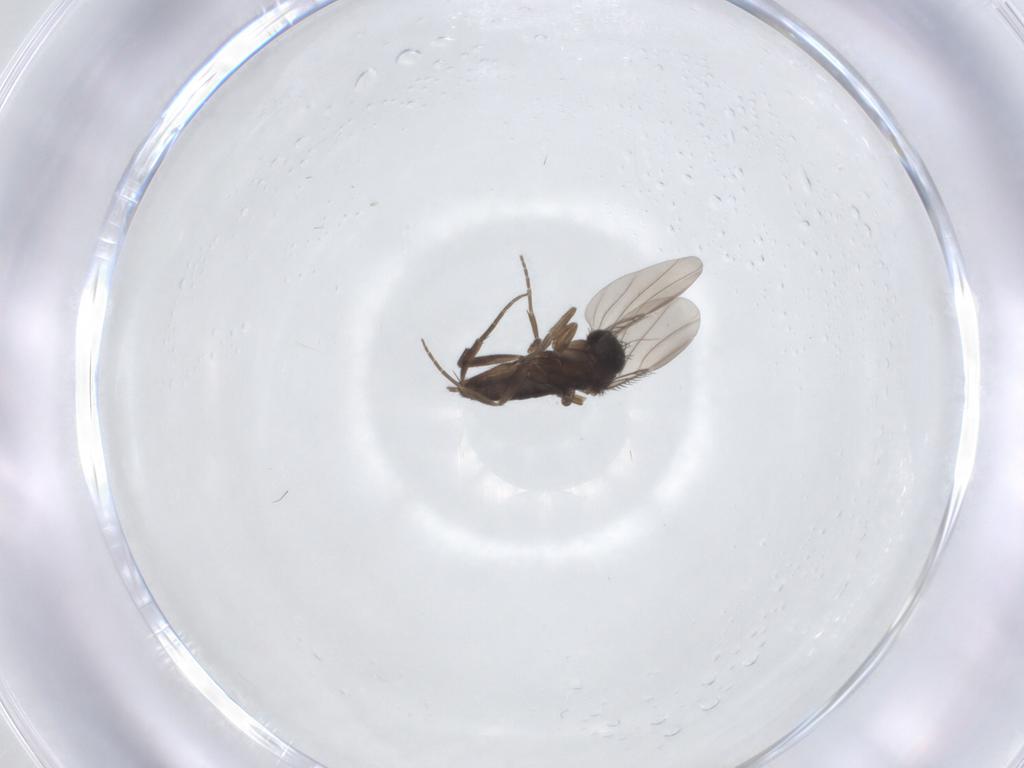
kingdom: Animalia
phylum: Arthropoda
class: Insecta
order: Diptera
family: Phoridae
